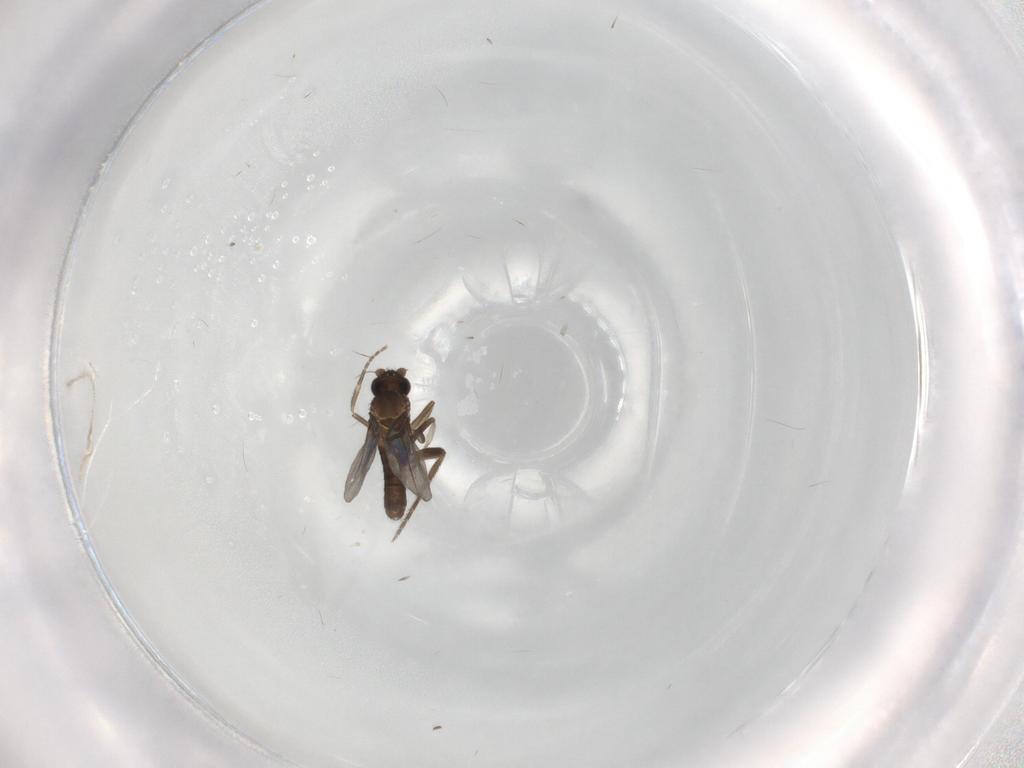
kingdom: Animalia
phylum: Arthropoda
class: Insecta
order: Diptera
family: Phoridae
